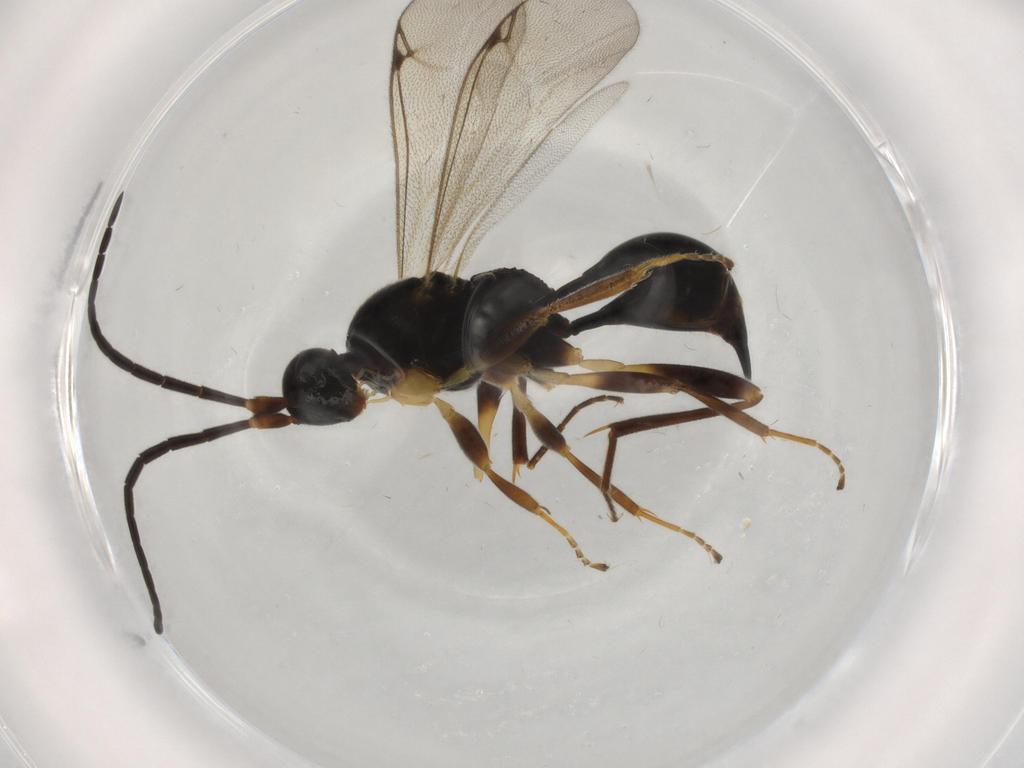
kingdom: Animalia
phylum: Arthropoda
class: Insecta
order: Hymenoptera
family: Proctotrupidae
